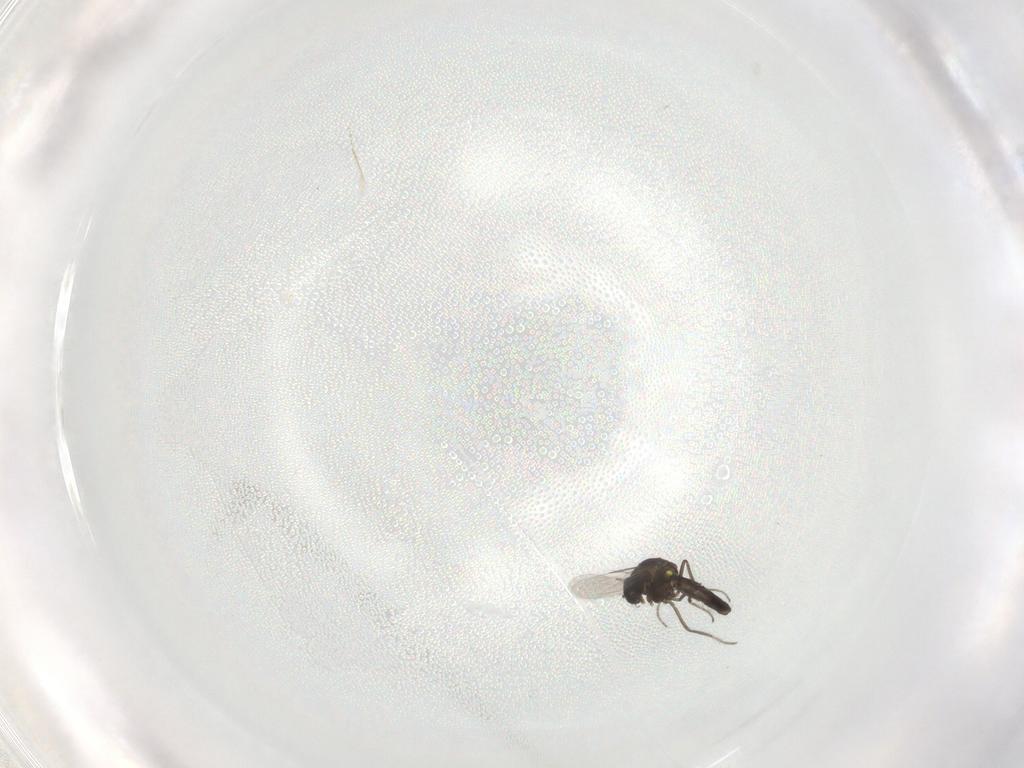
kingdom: Animalia
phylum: Arthropoda
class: Insecta
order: Diptera
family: Ceratopogonidae
